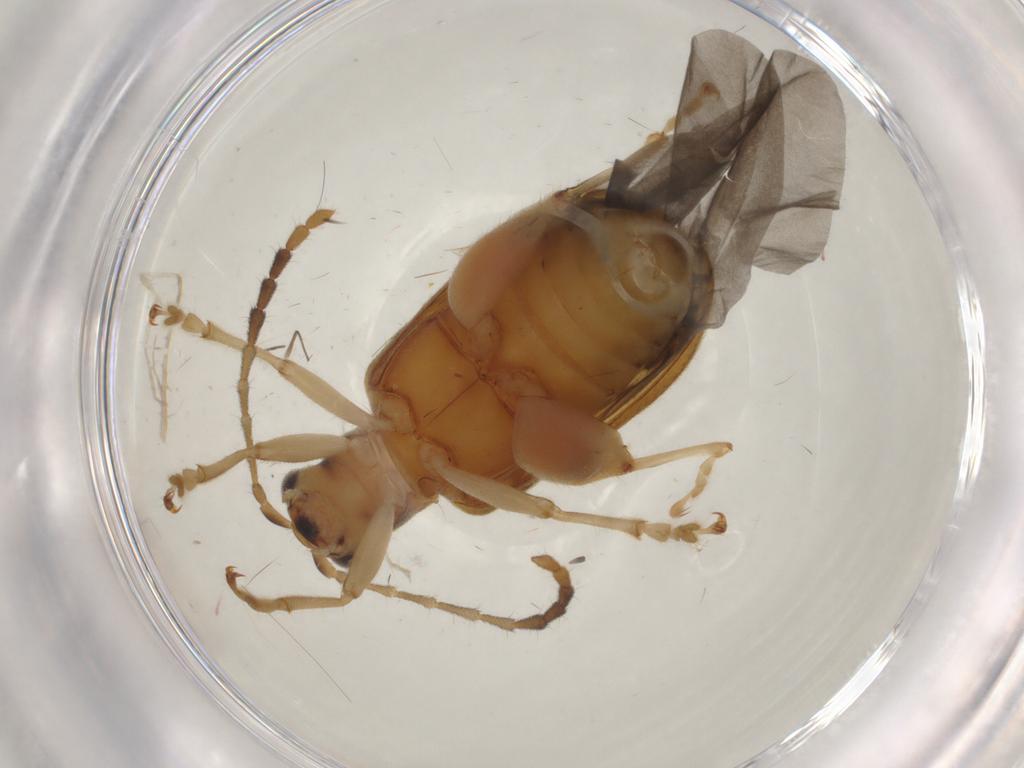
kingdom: Animalia
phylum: Arthropoda
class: Insecta
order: Coleoptera
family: Chrysomelidae
